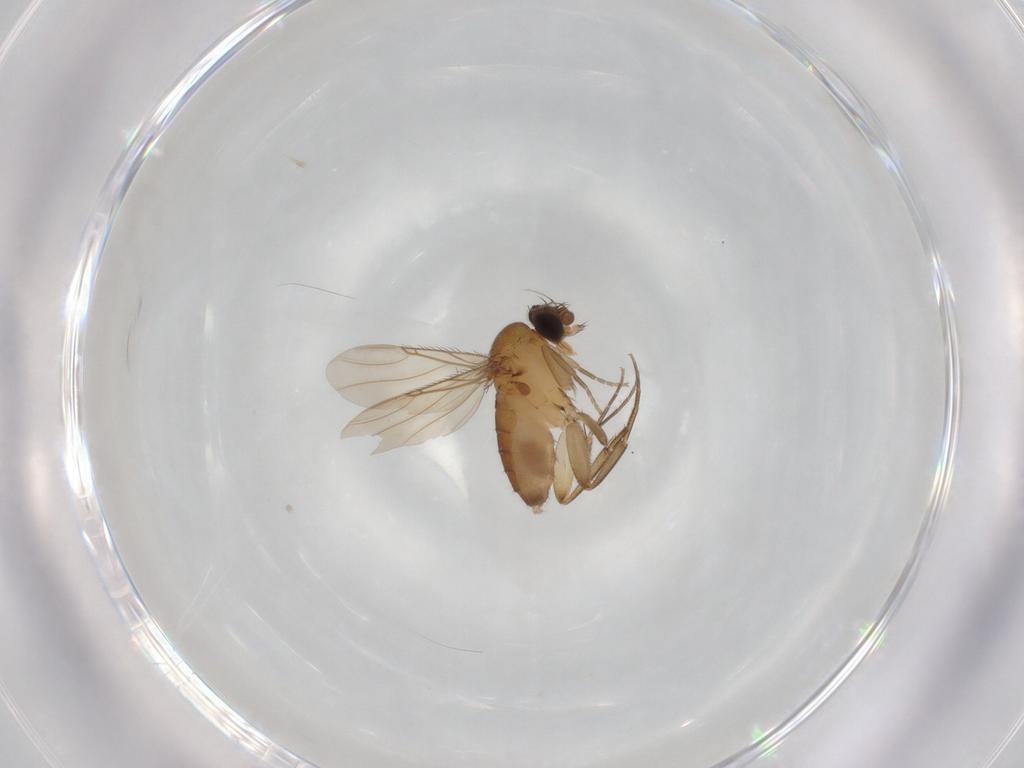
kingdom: Animalia
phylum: Arthropoda
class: Insecta
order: Diptera
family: Phoridae
